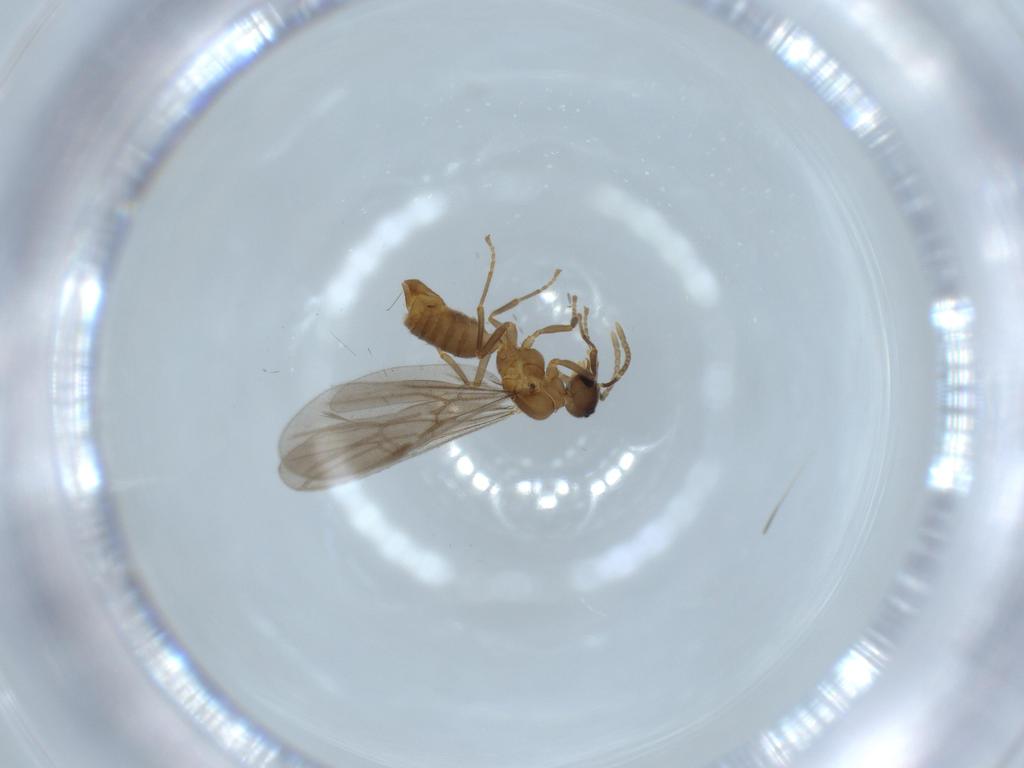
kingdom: Animalia
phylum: Arthropoda
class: Insecta
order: Hymenoptera
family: Formicidae
